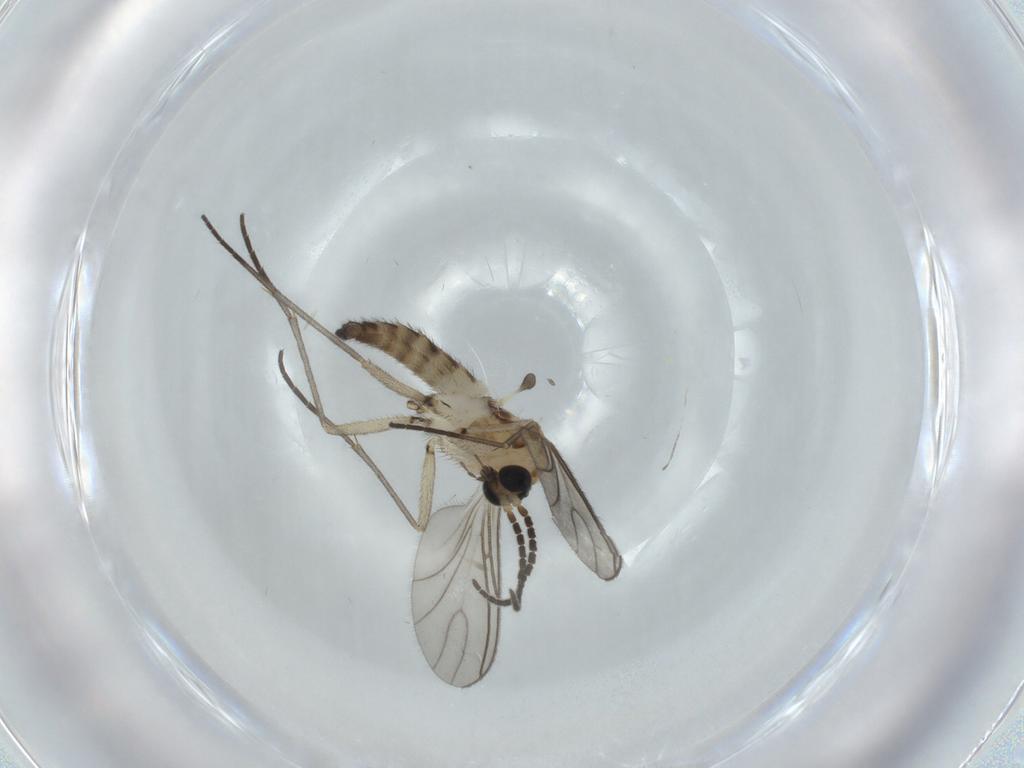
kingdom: Animalia
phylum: Arthropoda
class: Insecta
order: Diptera
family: Sciaridae
